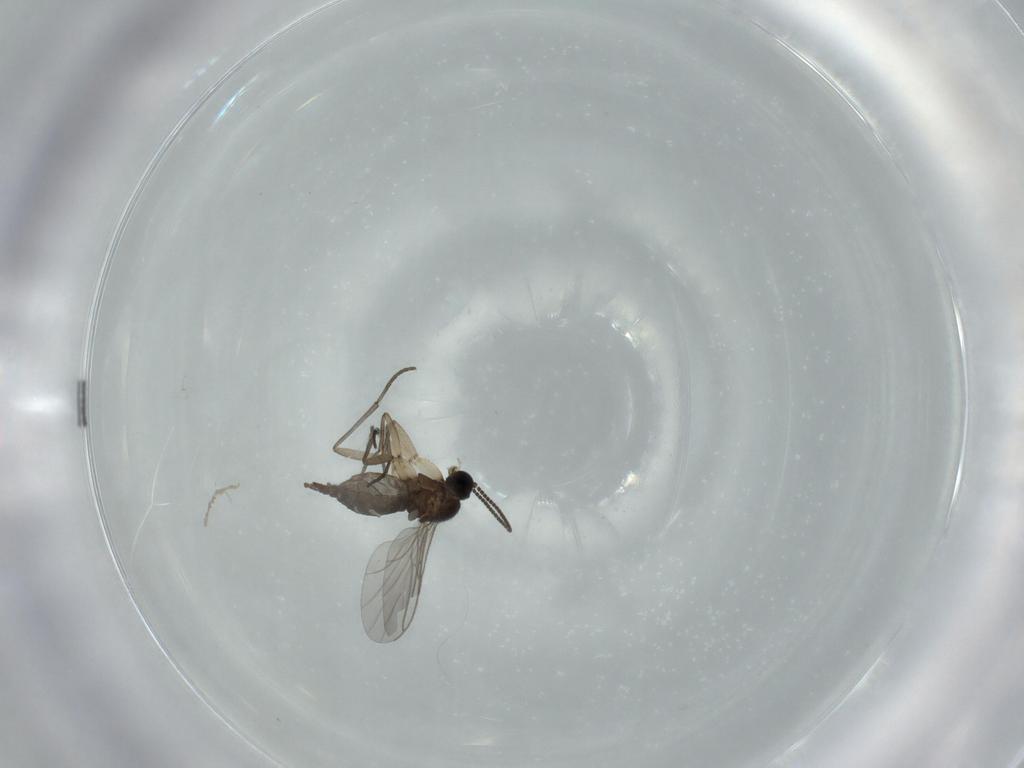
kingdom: Animalia
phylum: Arthropoda
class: Insecta
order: Diptera
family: Sciaridae
